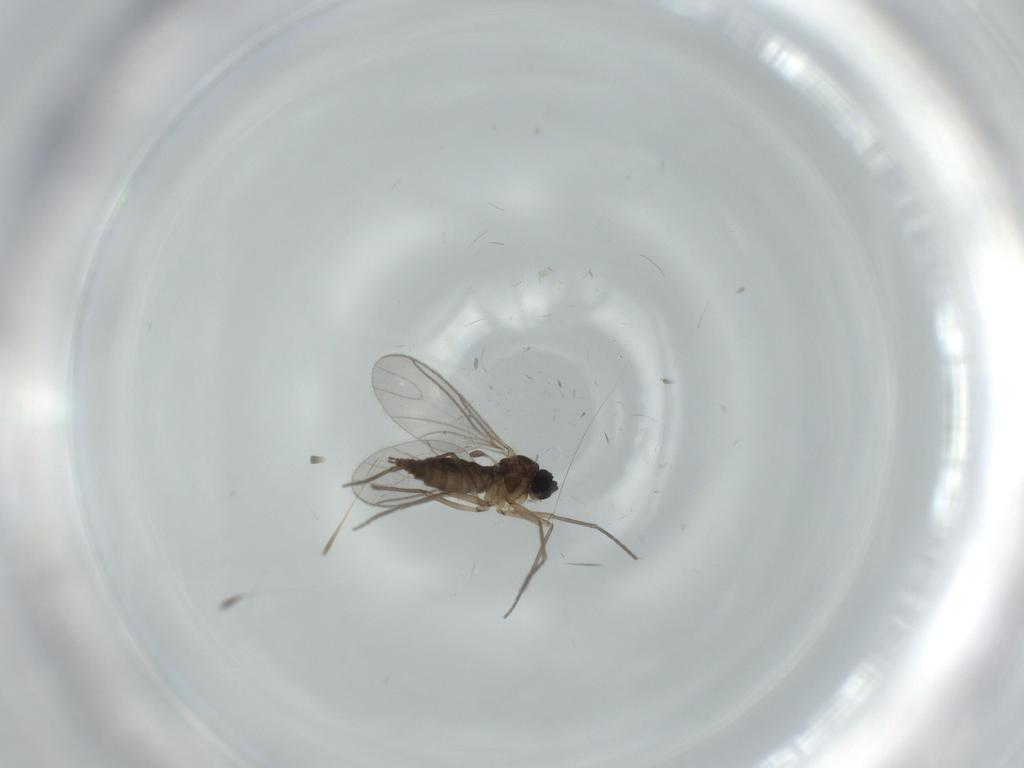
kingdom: Animalia
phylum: Arthropoda
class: Insecta
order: Diptera
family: Sciaridae
